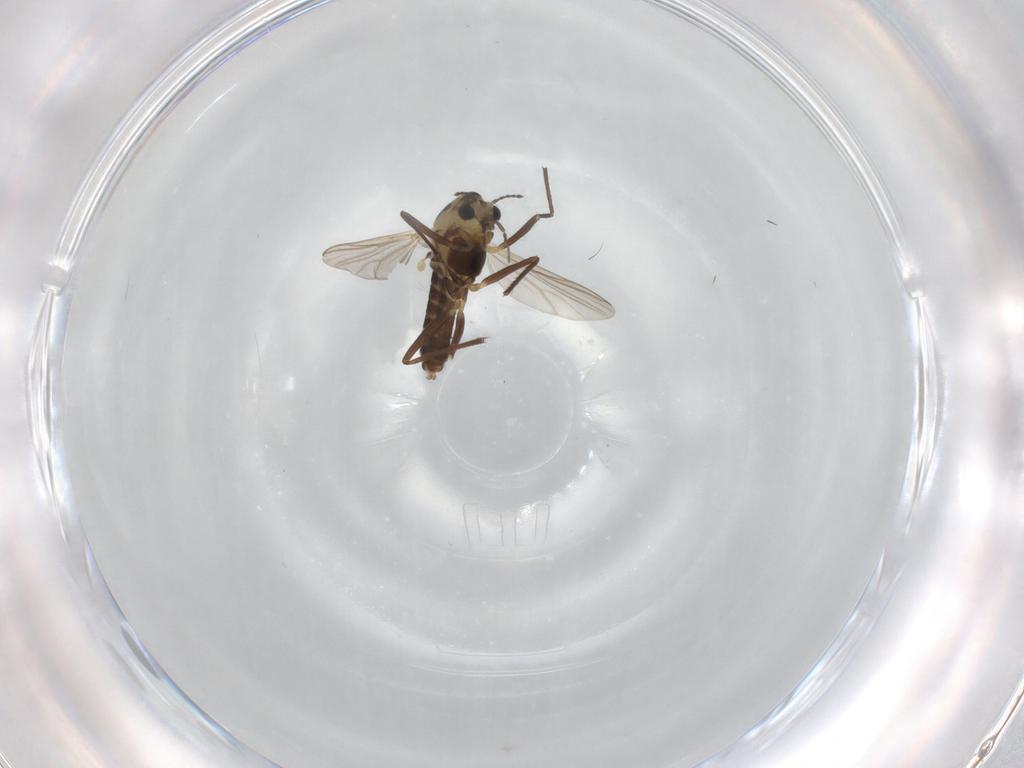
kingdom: Animalia
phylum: Arthropoda
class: Insecta
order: Diptera
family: Chironomidae
